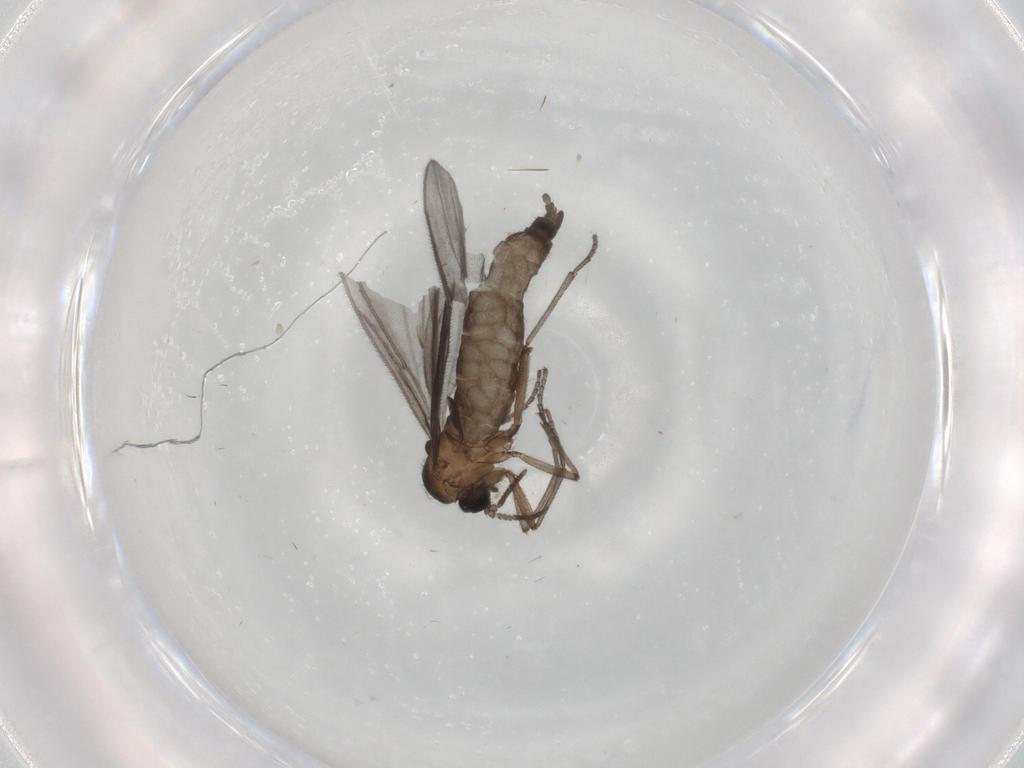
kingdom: Animalia
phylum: Arthropoda
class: Insecta
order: Diptera
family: Sciaridae
